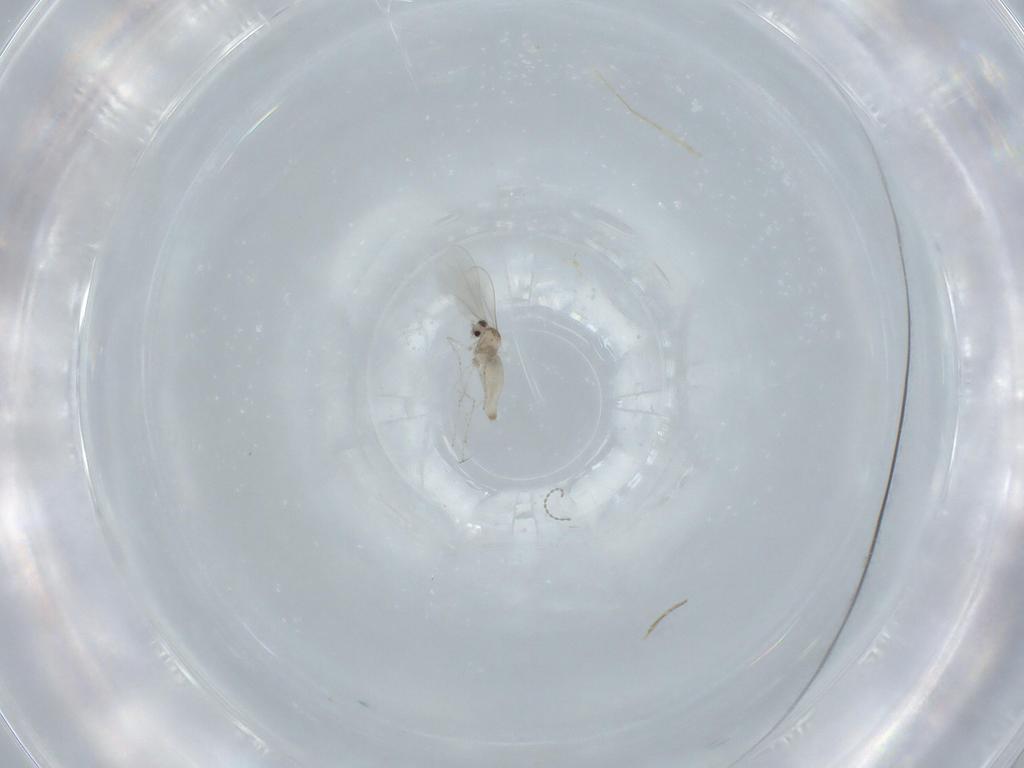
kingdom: Animalia
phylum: Arthropoda
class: Insecta
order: Diptera
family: Cecidomyiidae
